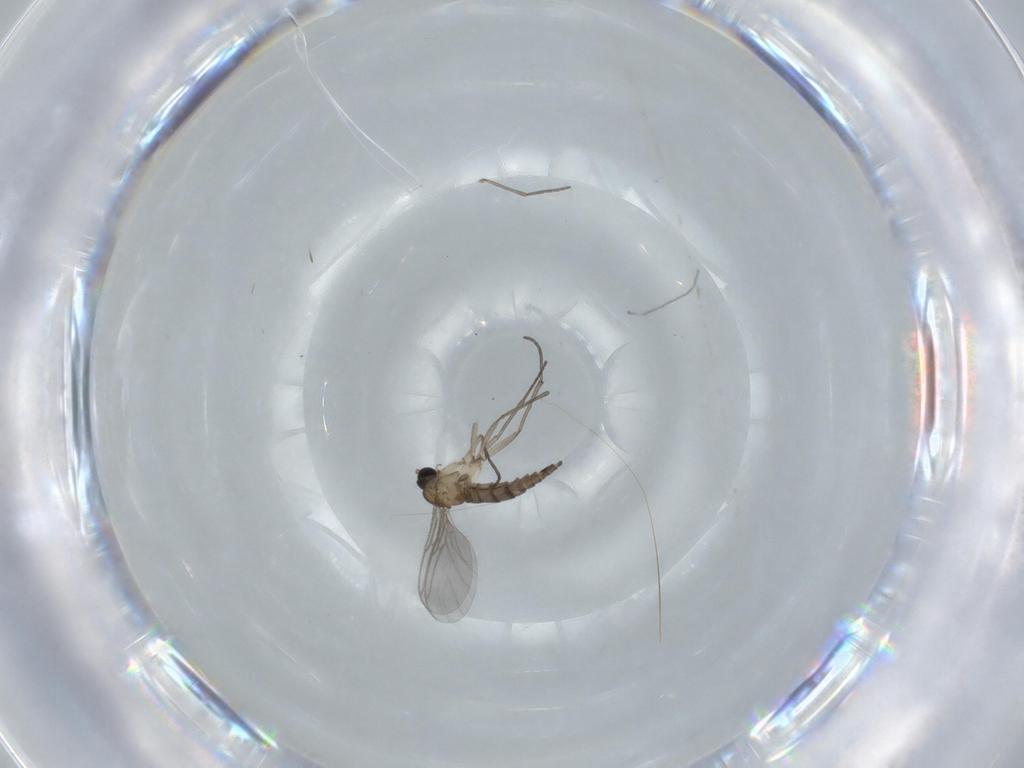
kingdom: Animalia
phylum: Arthropoda
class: Insecta
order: Diptera
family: Sciaridae
